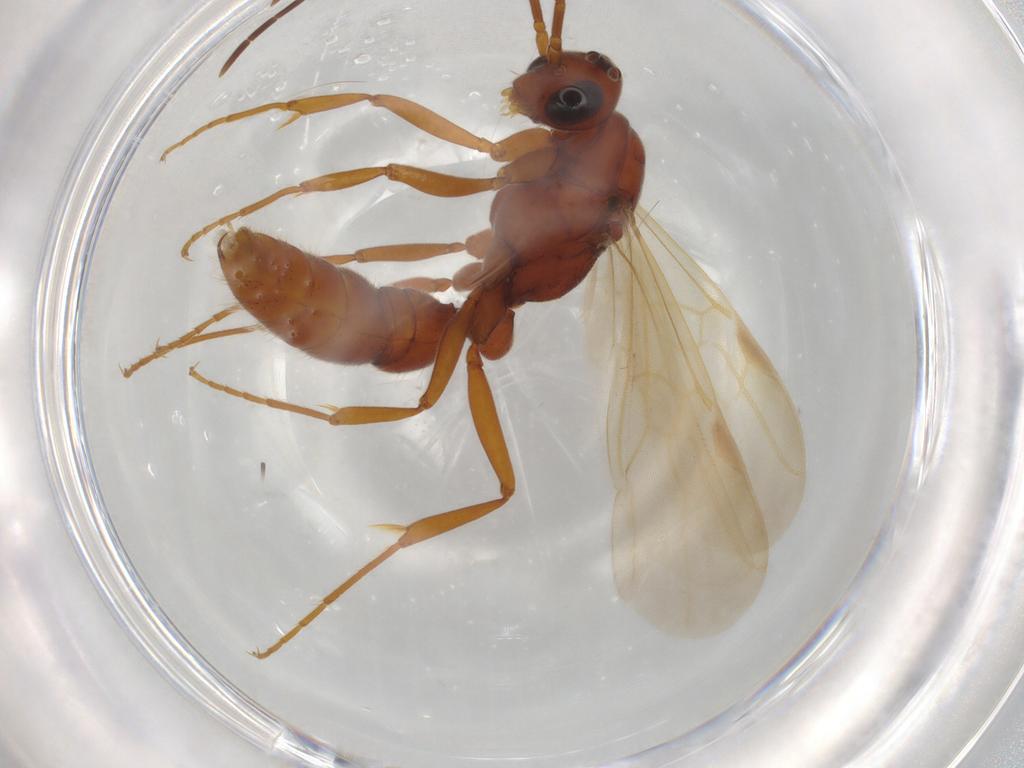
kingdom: Animalia
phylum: Arthropoda
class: Insecta
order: Hymenoptera
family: Formicidae
